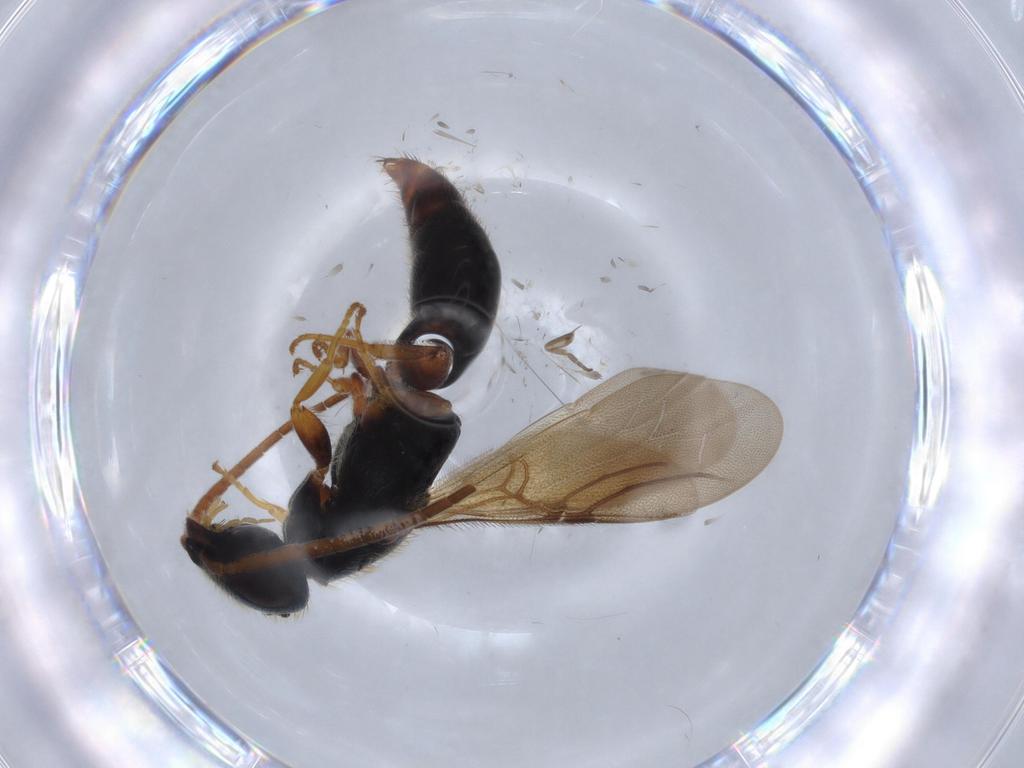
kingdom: Animalia
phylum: Arthropoda
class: Insecta
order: Hymenoptera
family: Bethylidae
